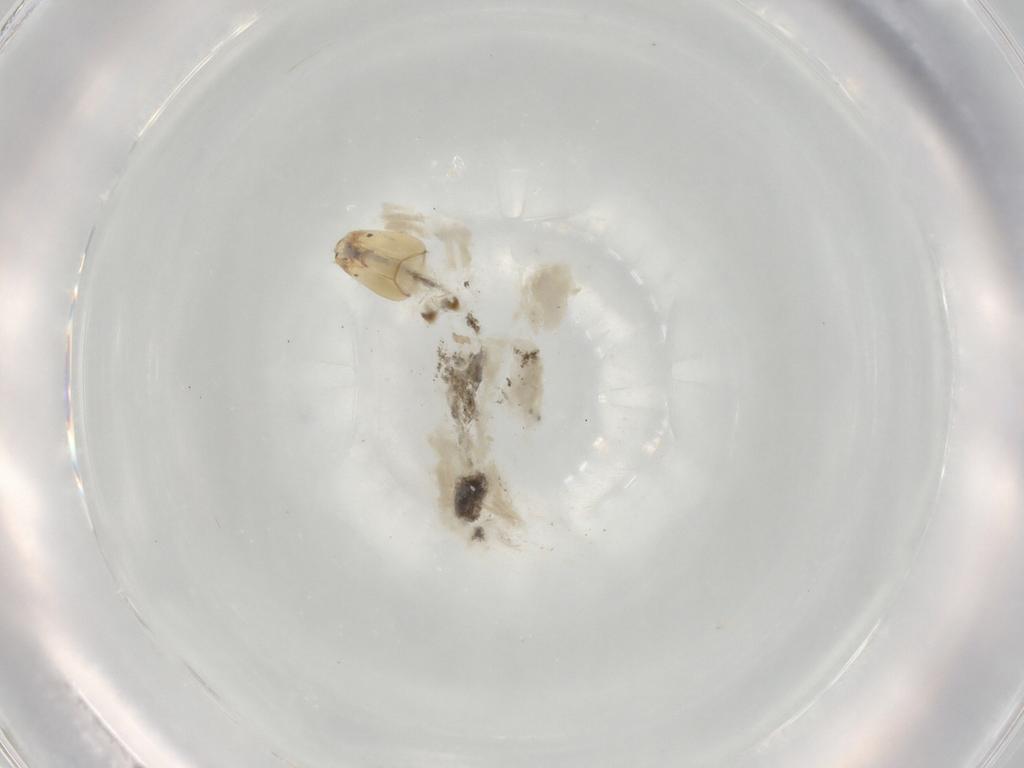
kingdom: Animalia
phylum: Arthropoda
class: Insecta
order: Diptera
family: Chironomidae
